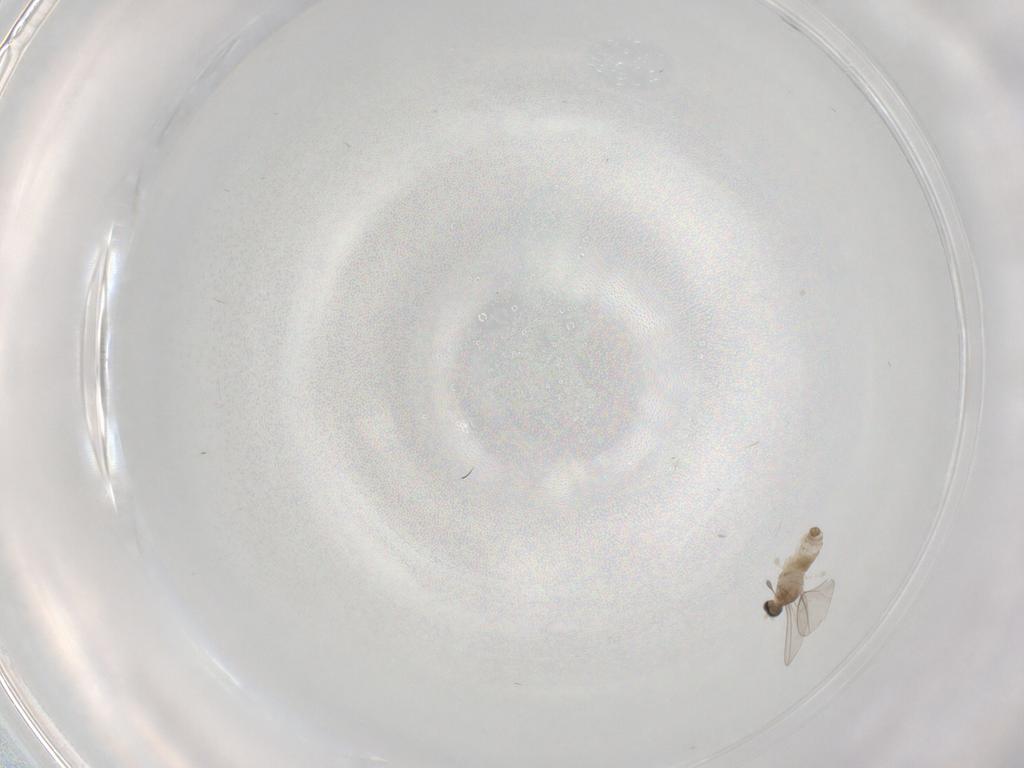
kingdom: Animalia
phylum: Arthropoda
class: Insecta
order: Diptera
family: Cecidomyiidae
